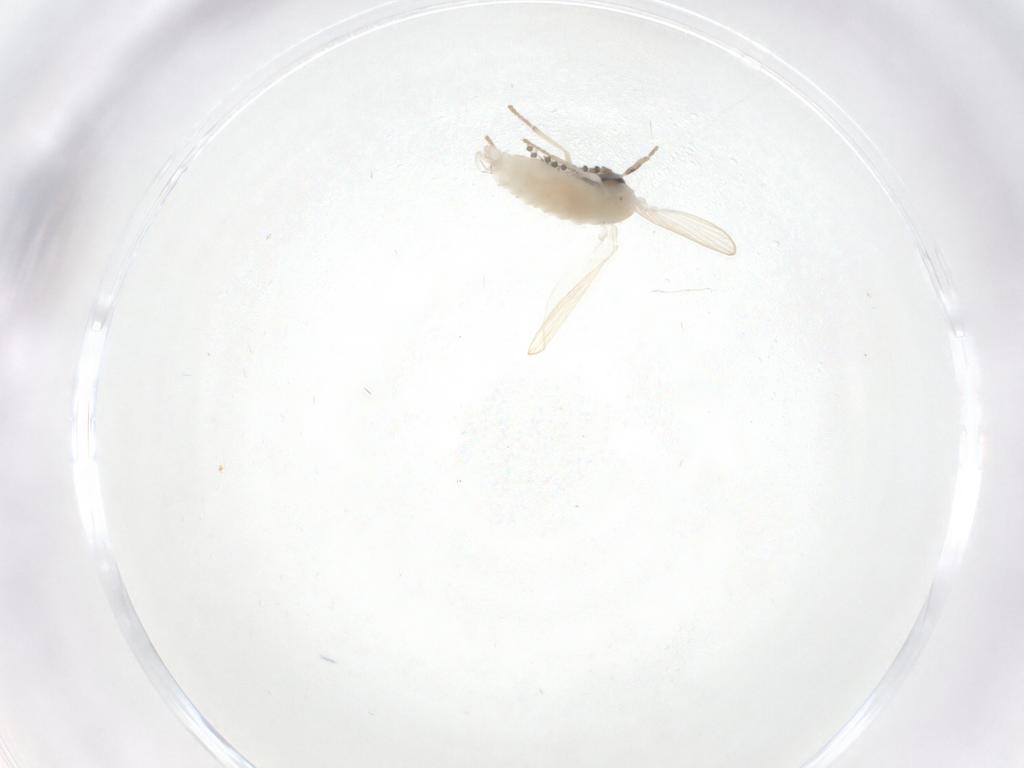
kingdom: Animalia
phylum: Arthropoda
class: Insecta
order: Diptera
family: Psychodidae
